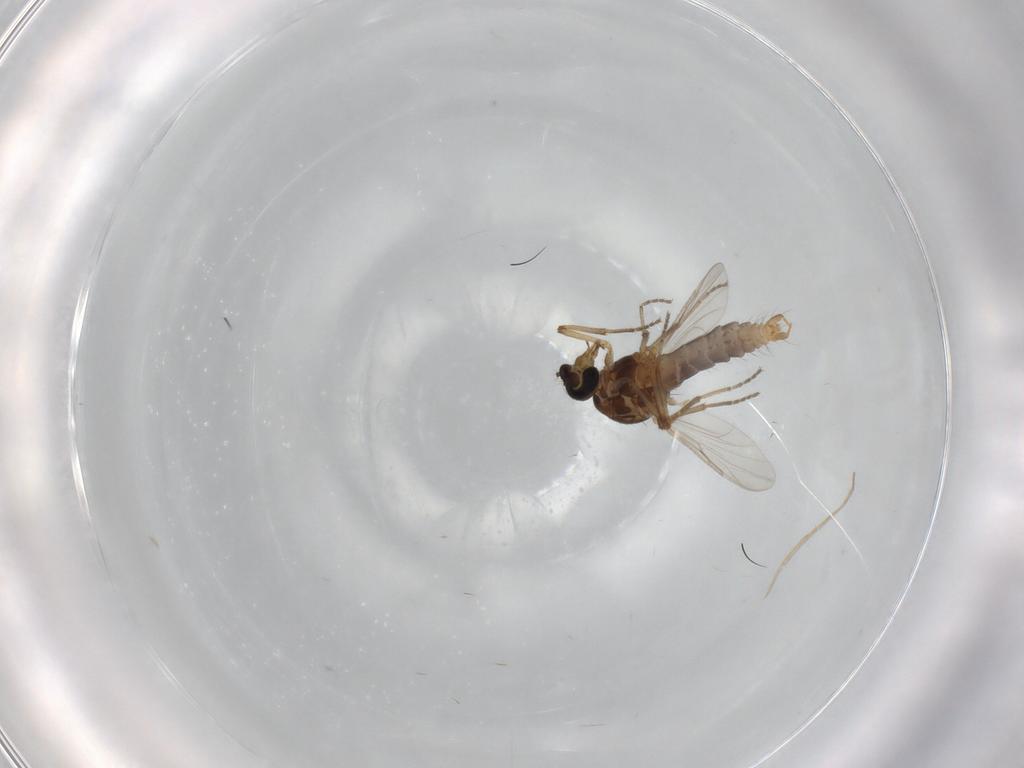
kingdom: Animalia
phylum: Arthropoda
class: Insecta
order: Diptera
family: Ceratopogonidae
